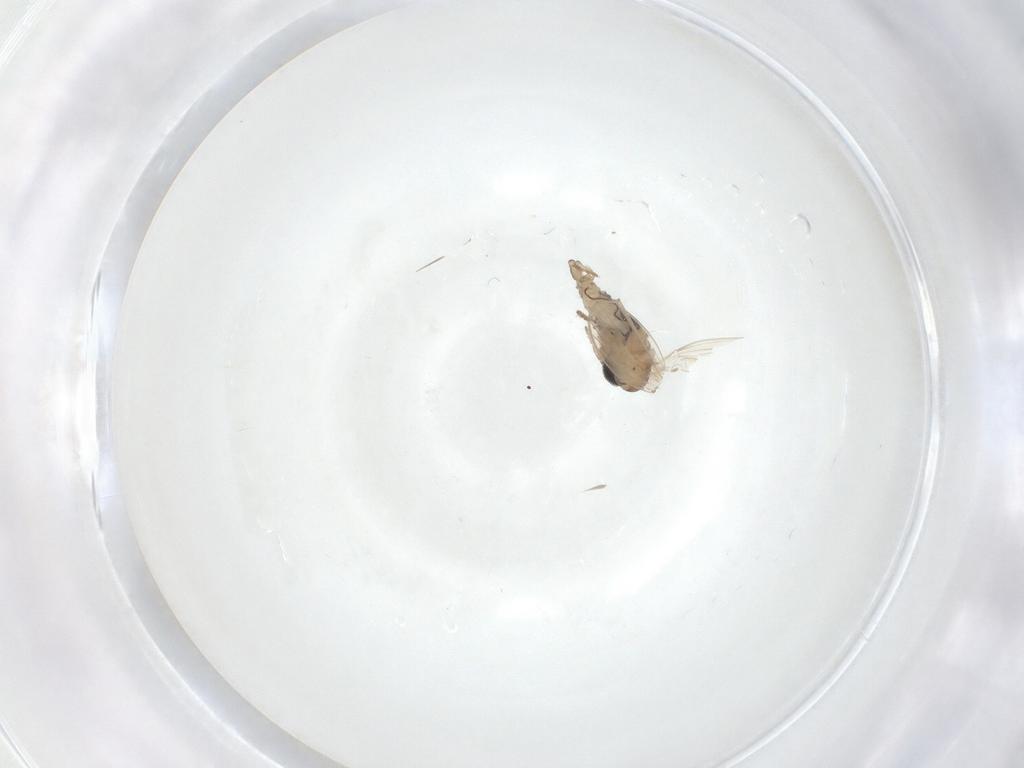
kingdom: Animalia
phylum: Arthropoda
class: Insecta
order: Diptera
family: Psychodidae
